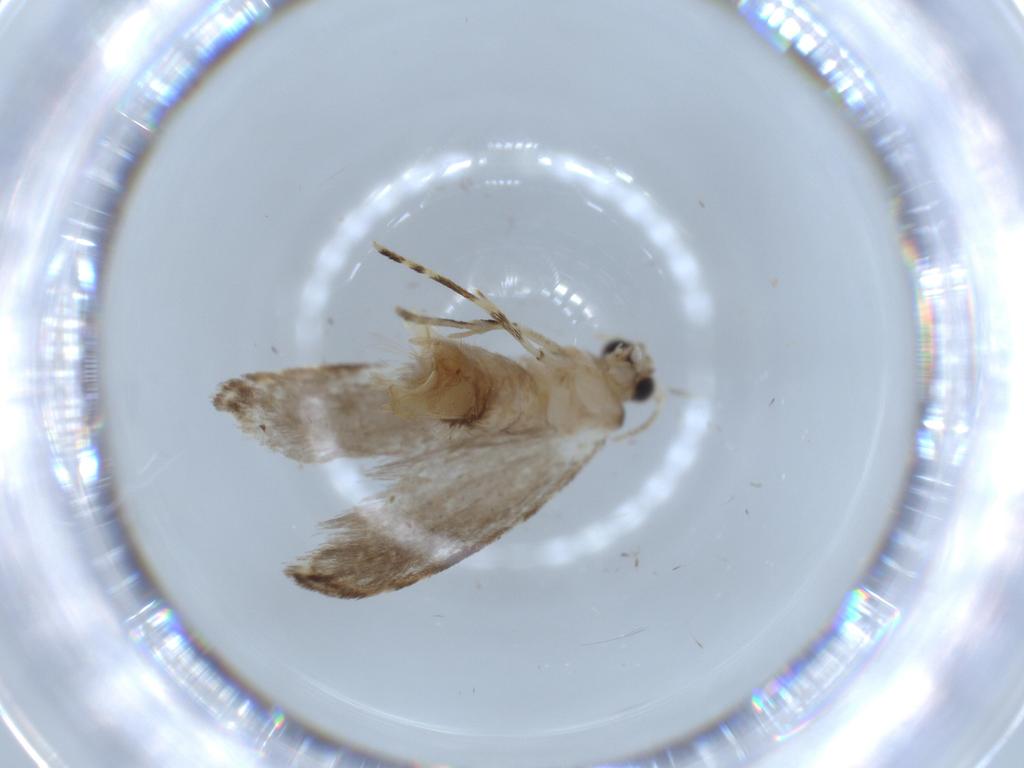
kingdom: Animalia
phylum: Arthropoda
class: Insecta
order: Lepidoptera
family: Tineidae
